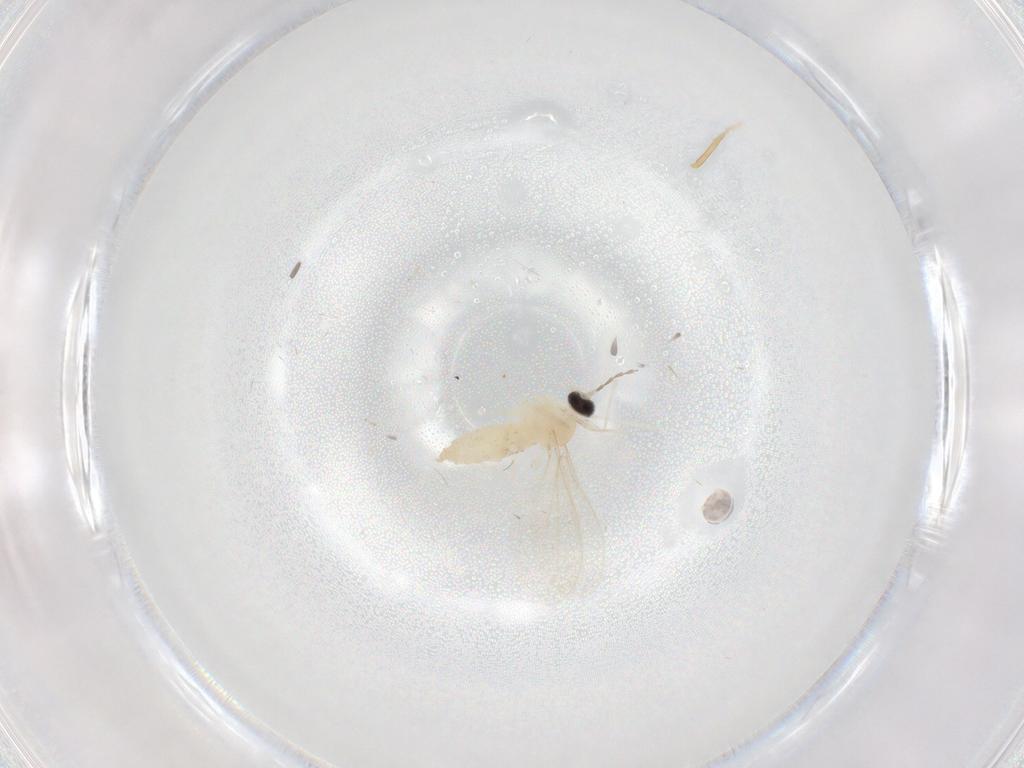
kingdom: Animalia
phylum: Arthropoda
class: Insecta
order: Diptera
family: Cecidomyiidae
